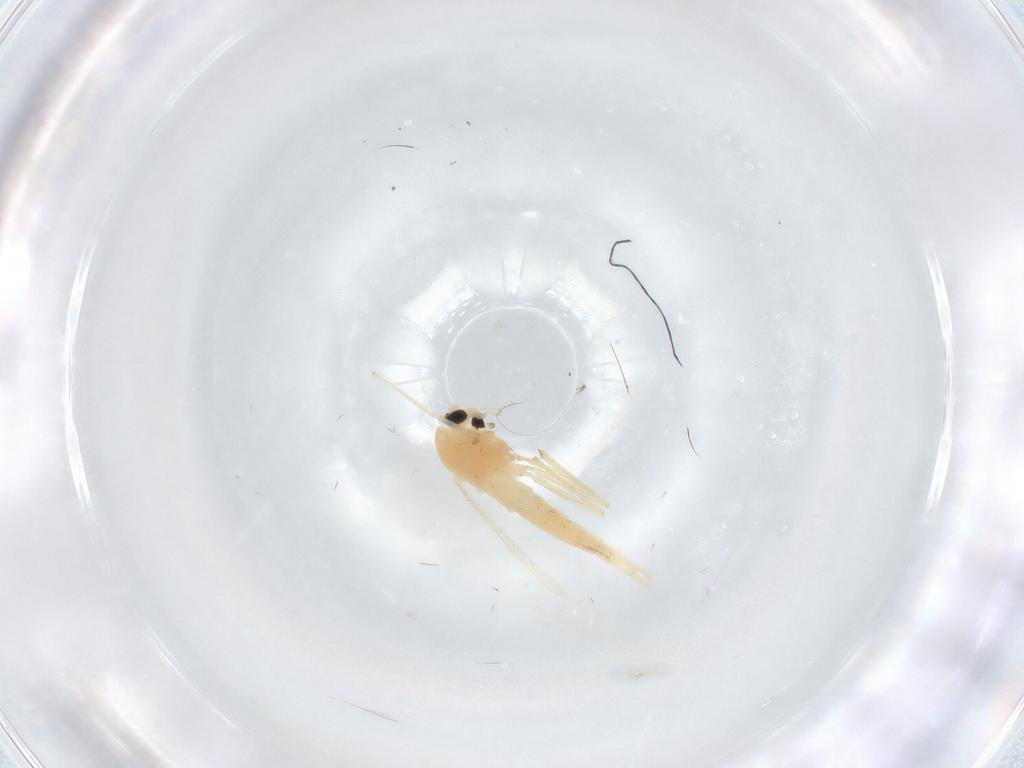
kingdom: Animalia
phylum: Arthropoda
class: Insecta
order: Diptera
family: Chironomidae
